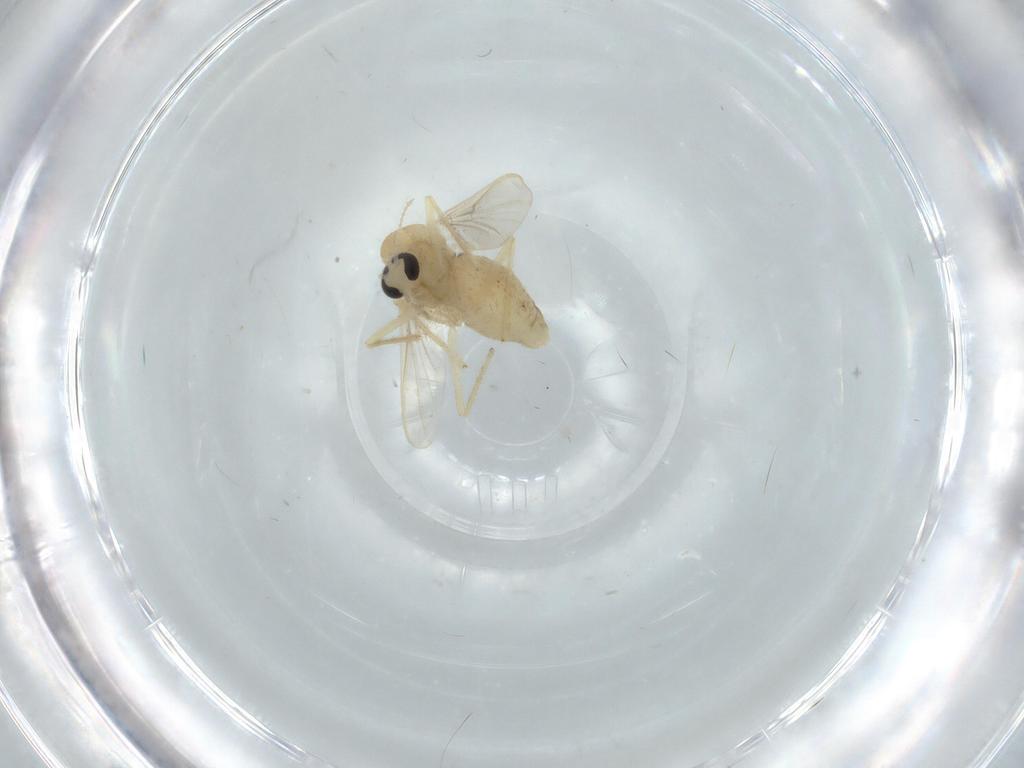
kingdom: Animalia
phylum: Arthropoda
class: Insecta
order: Diptera
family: Chironomidae
